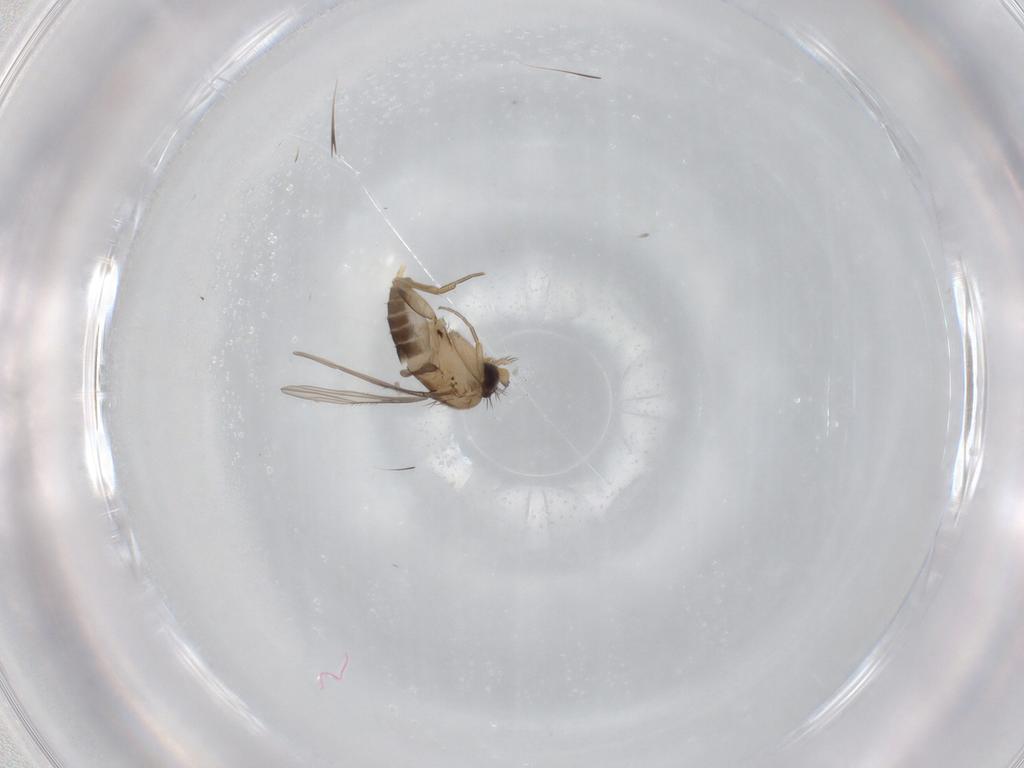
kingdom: Animalia
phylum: Arthropoda
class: Insecta
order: Diptera
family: Phoridae
